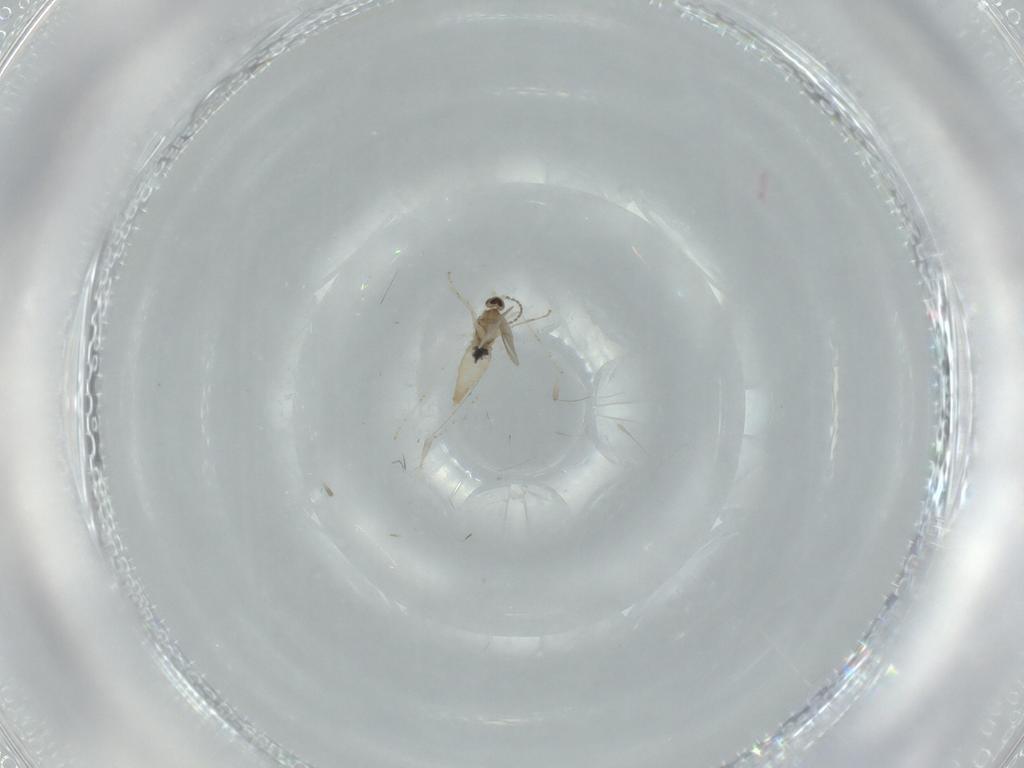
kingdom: Animalia
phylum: Arthropoda
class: Insecta
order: Diptera
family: Cecidomyiidae
